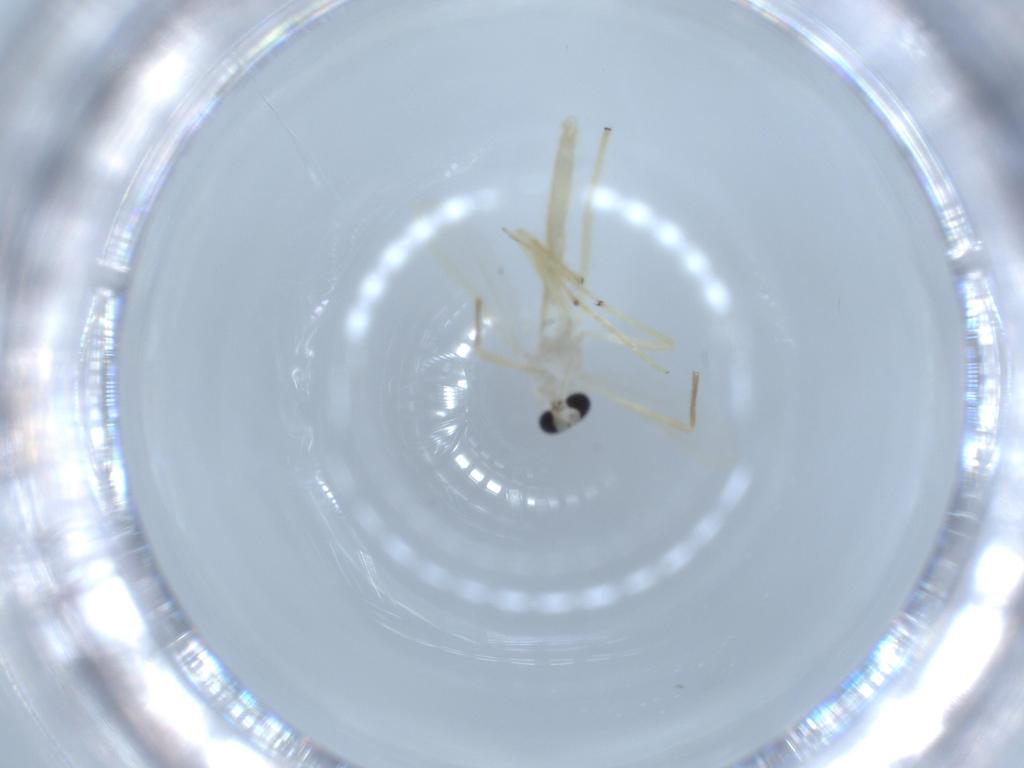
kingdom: Animalia
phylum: Arthropoda
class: Insecta
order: Diptera
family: Chironomidae
